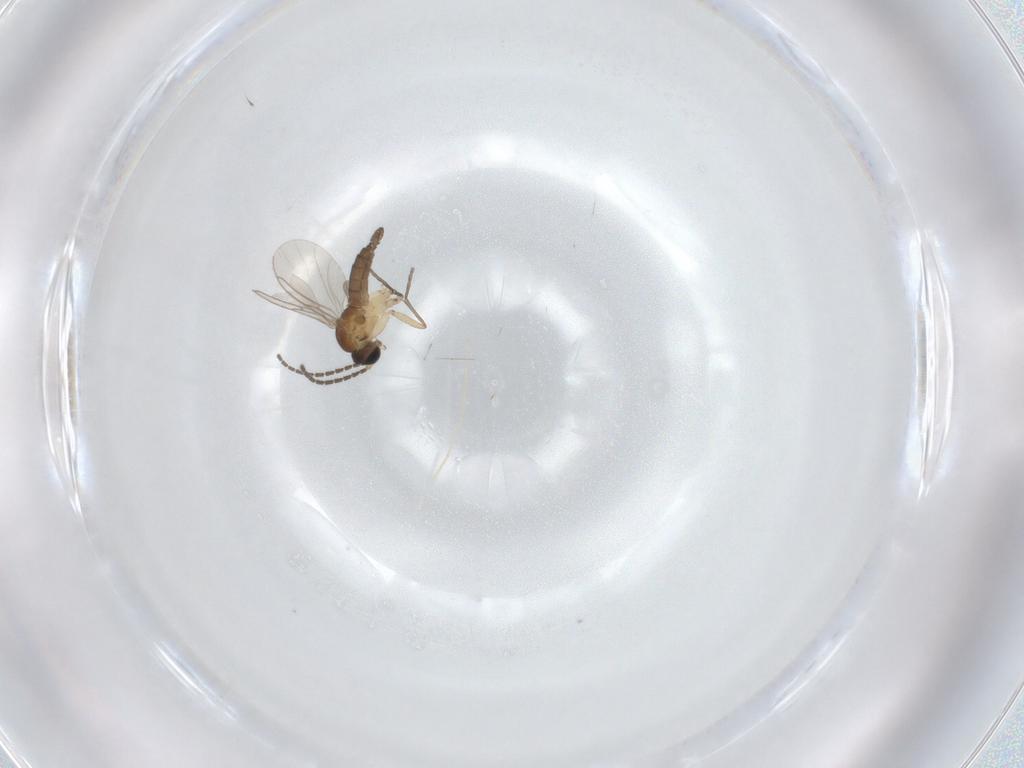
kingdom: Animalia
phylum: Arthropoda
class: Insecta
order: Diptera
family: Sciaridae
